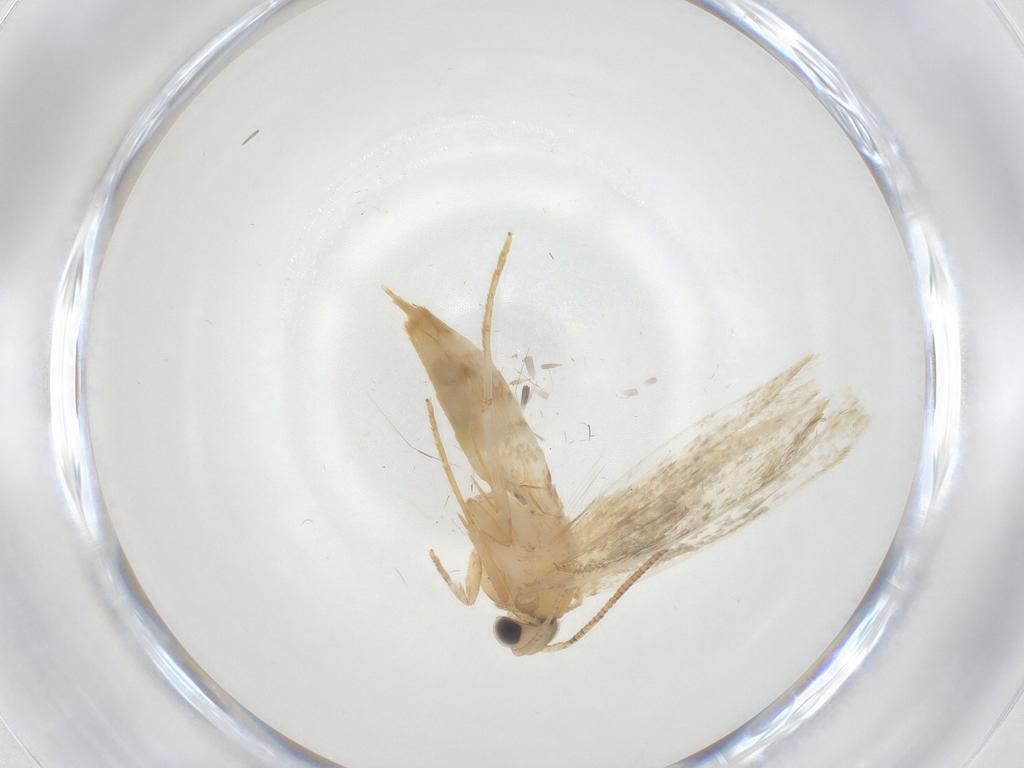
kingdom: Animalia
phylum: Arthropoda
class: Insecta
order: Lepidoptera
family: Tineidae
